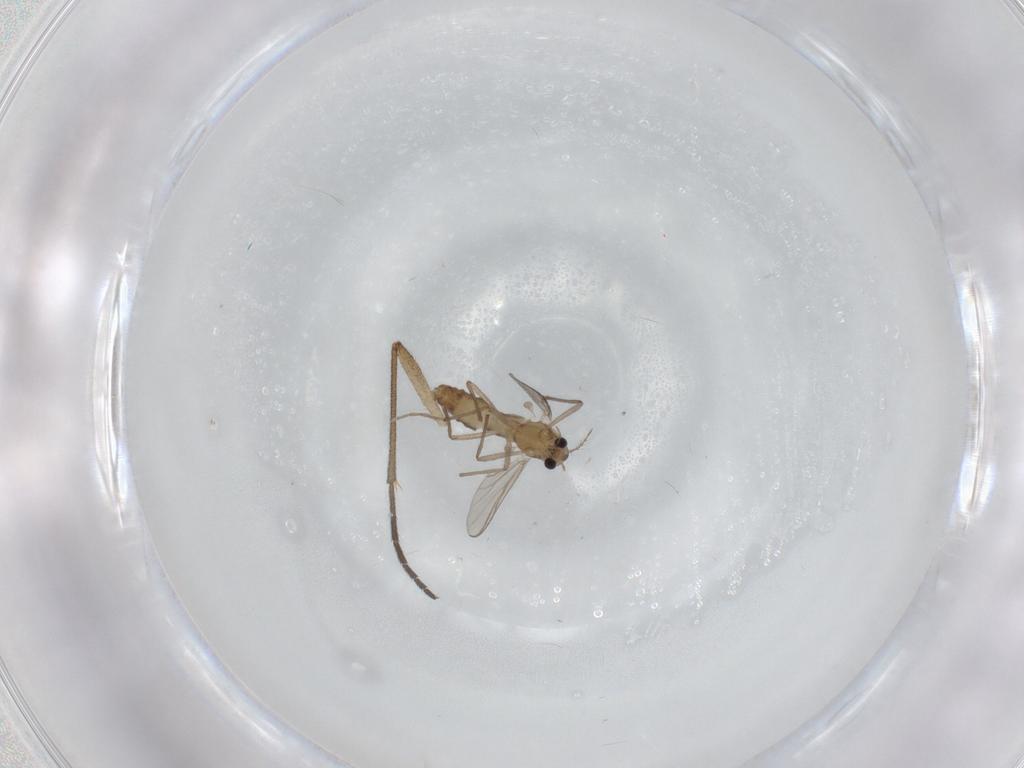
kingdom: Animalia
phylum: Arthropoda
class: Insecta
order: Diptera
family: Chironomidae
